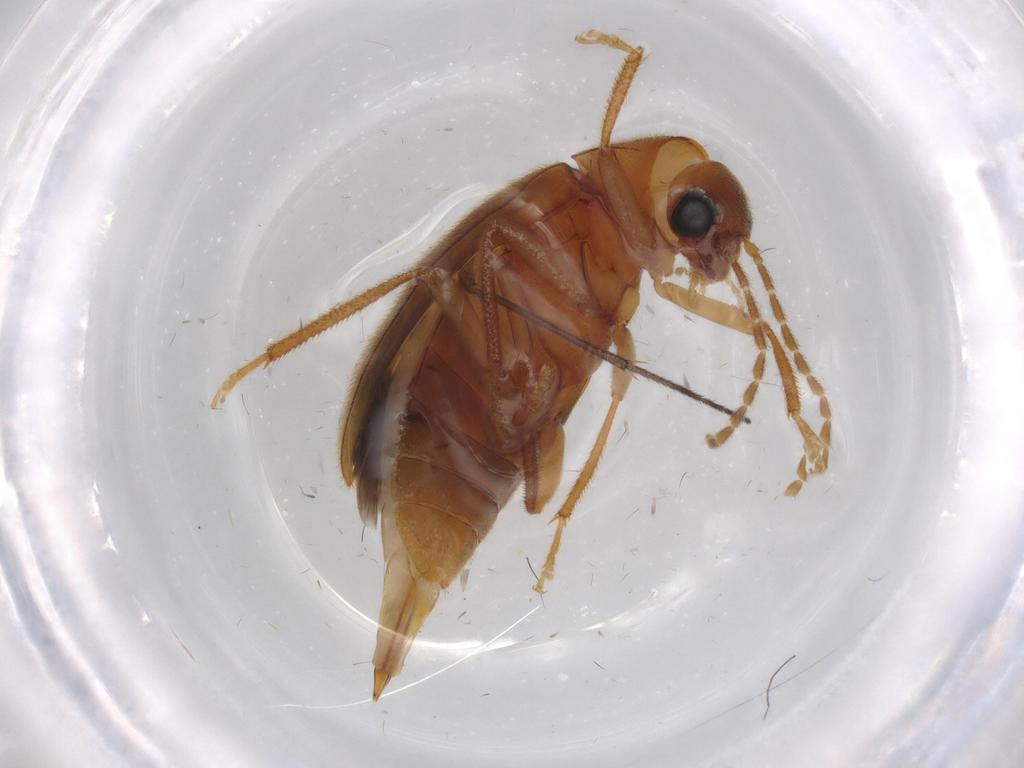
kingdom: Animalia
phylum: Arthropoda
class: Insecta
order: Coleoptera
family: Ptilodactylidae
